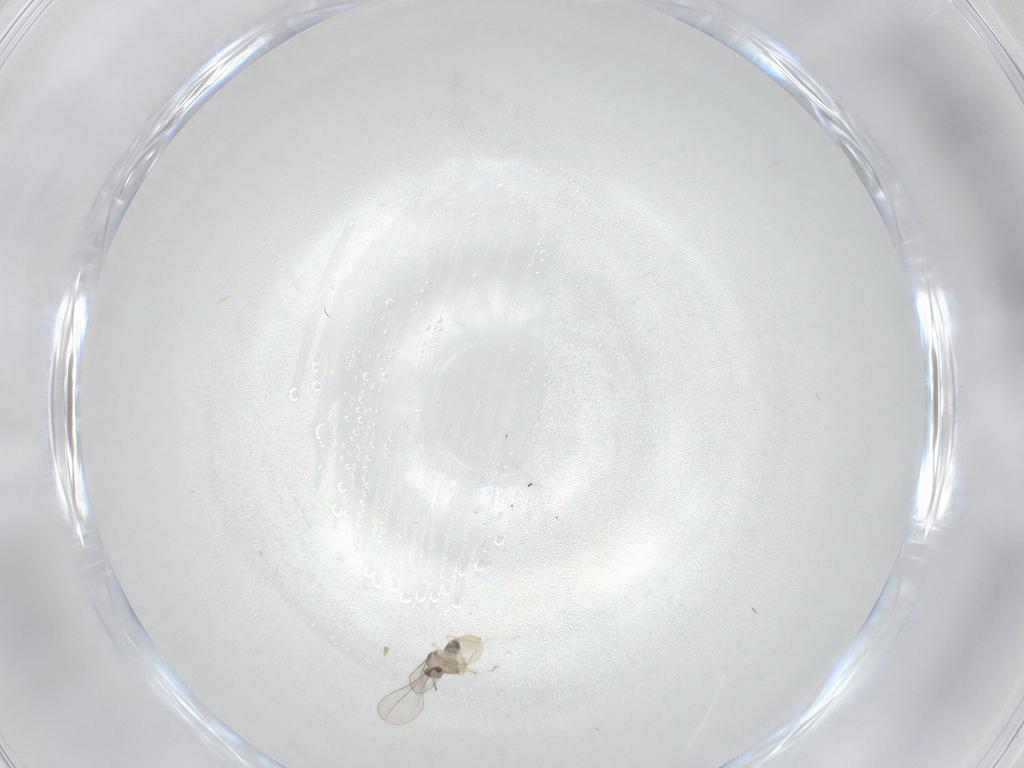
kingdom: Animalia
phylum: Arthropoda
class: Insecta
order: Diptera
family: Cecidomyiidae
